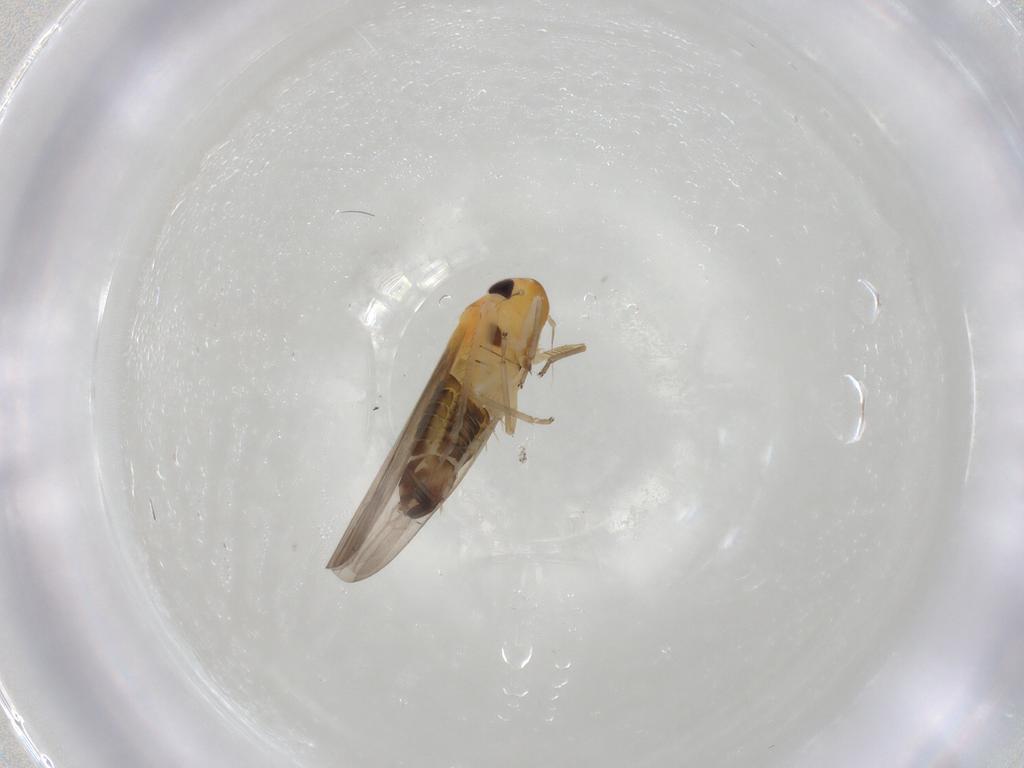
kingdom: Animalia
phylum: Arthropoda
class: Insecta
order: Hemiptera
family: Cicadellidae
